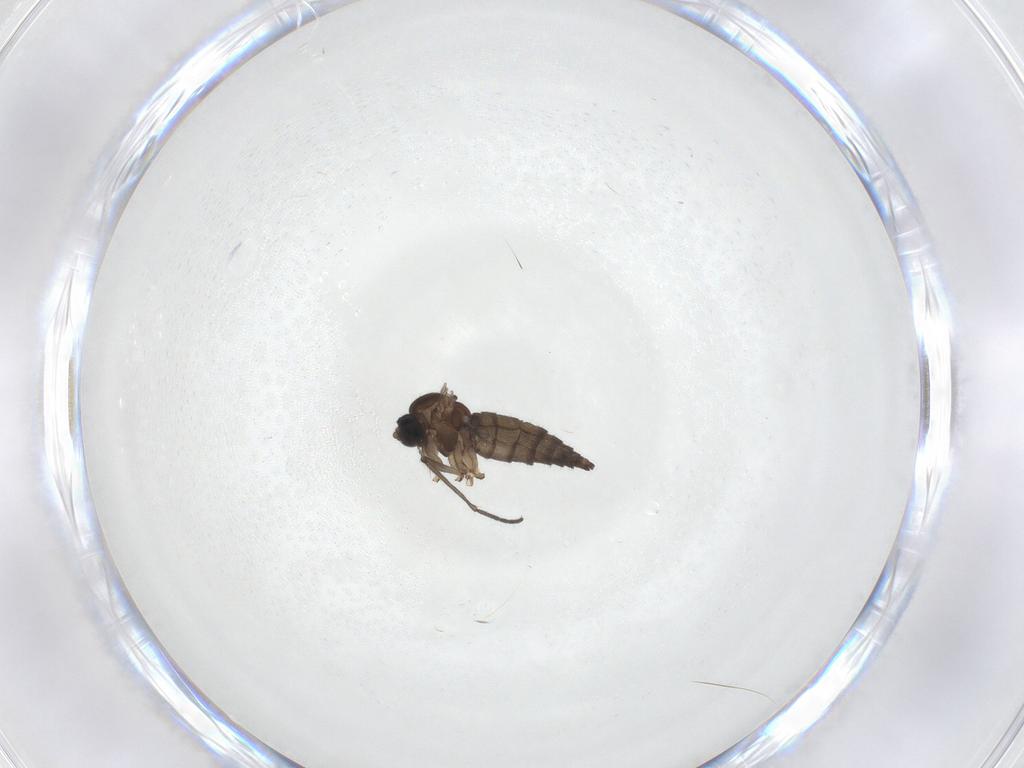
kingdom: Animalia
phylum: Arthropoda
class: Insecta
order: Diptera
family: Sciaridae
